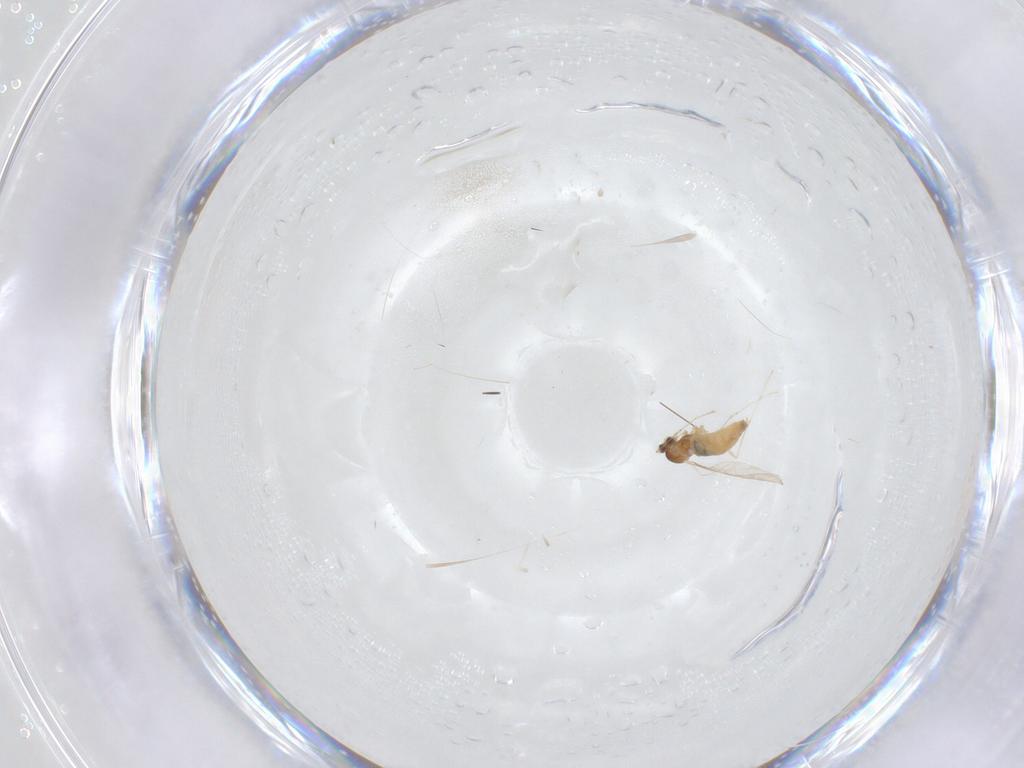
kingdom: Animalia
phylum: Arthropoda
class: Insecta
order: Diptera
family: Cecidomyiidae
